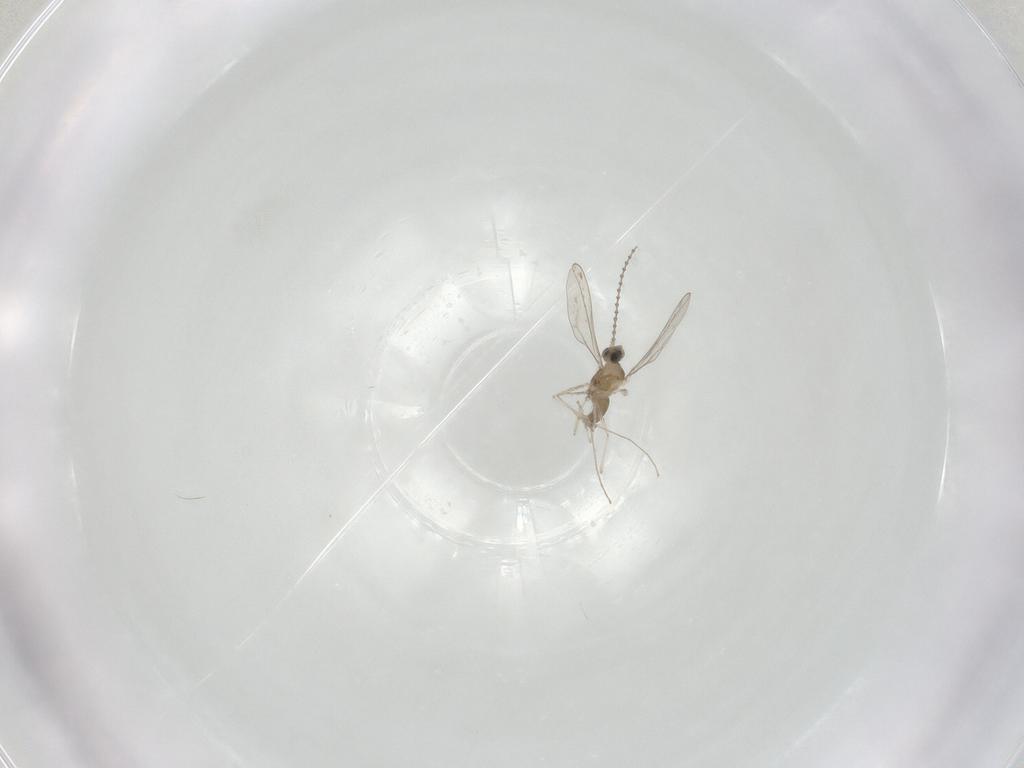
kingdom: Animalia
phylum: Arthropoda
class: Insecta
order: Diptera
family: Cecidomyiidae
